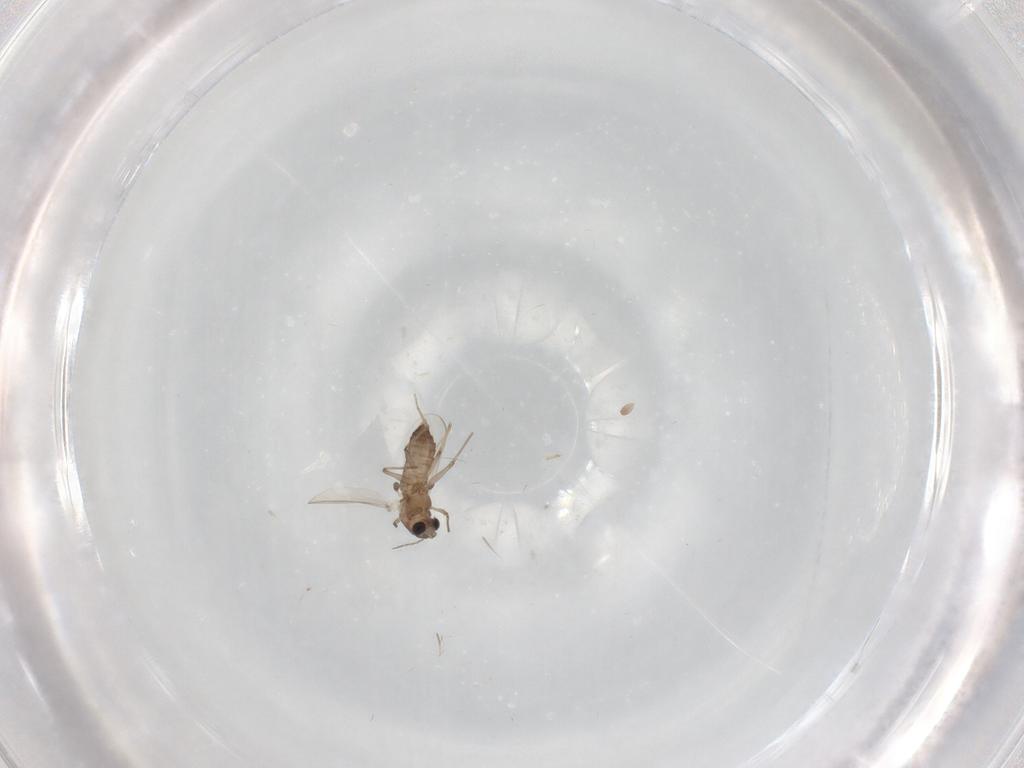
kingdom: Animalia
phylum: Arthropoda
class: Insecta
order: Diptera
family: Chironomidae
